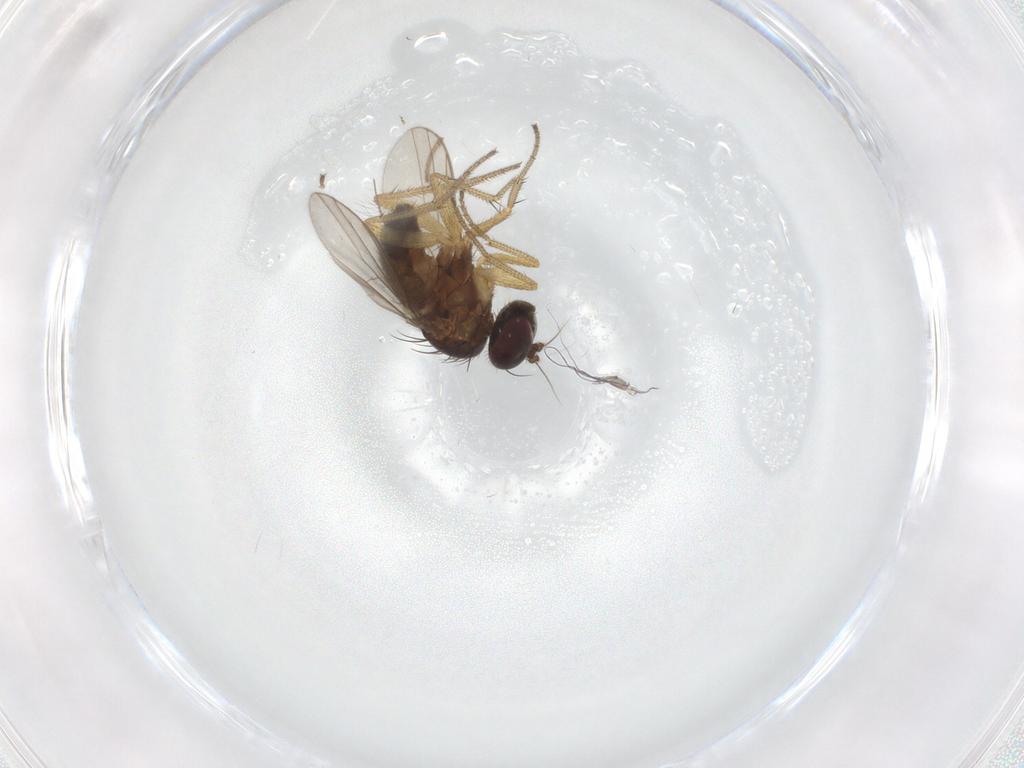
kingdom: Animalia
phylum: Arthropoda
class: Insecta
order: Diptera
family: Dolichopodidae
